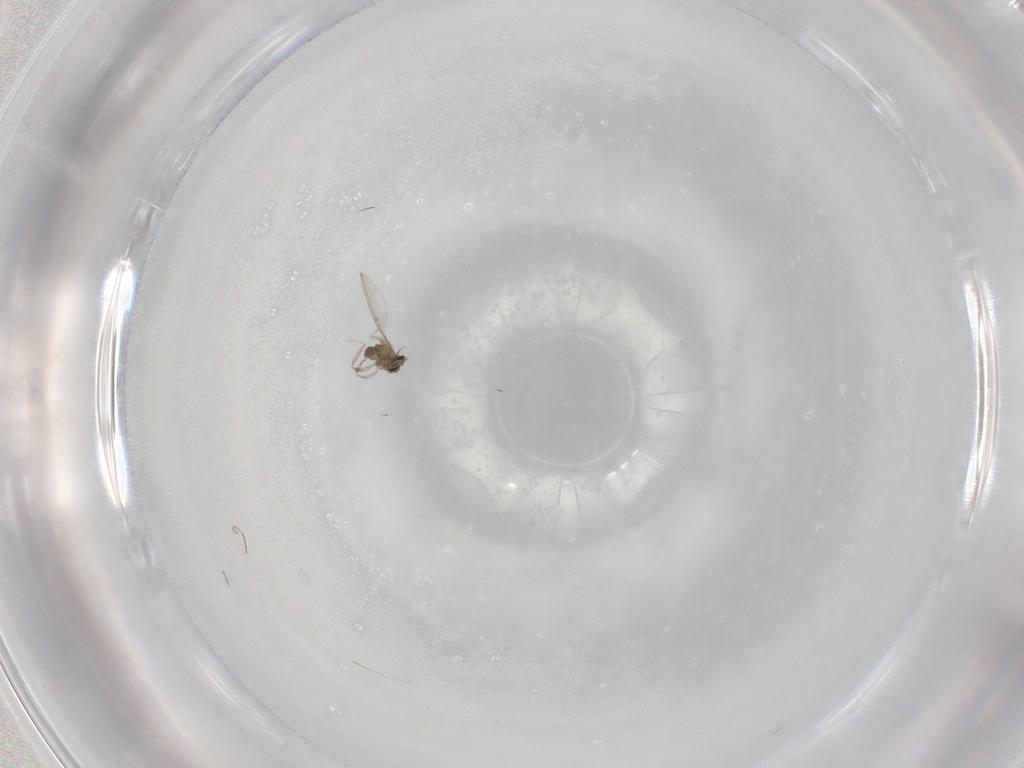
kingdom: Animalia
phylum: Arthropoda
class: Insecta
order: Diptera
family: Cecidomyiidae
